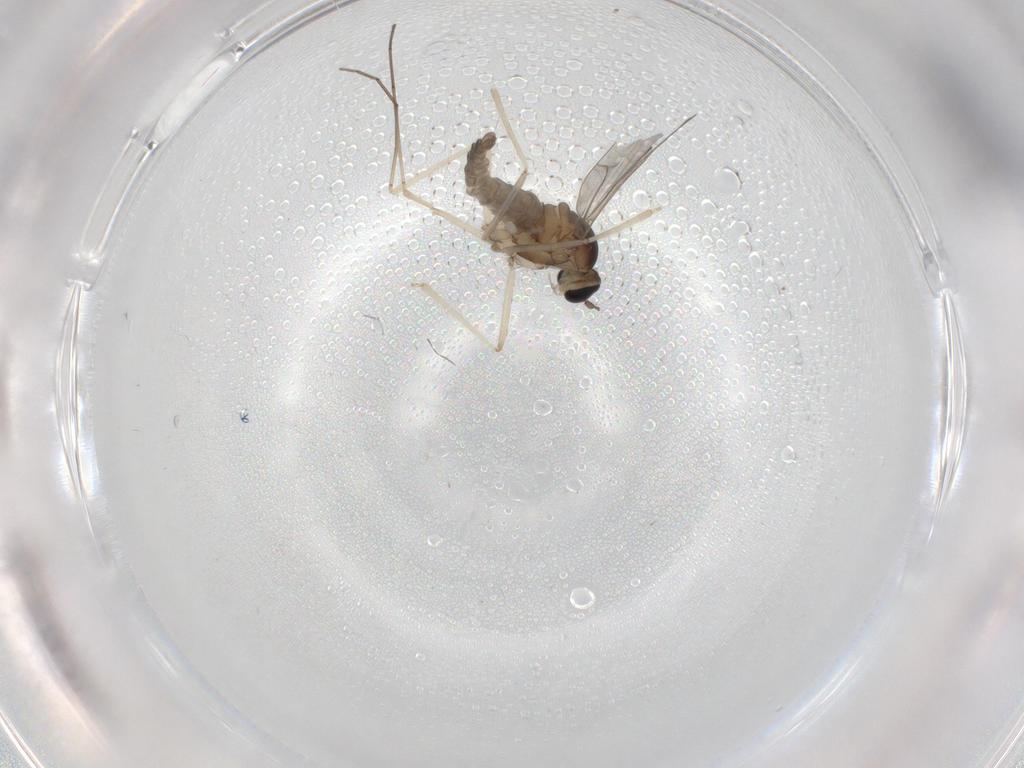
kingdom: Animalia
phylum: Arthropoda
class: Insecta
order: Diptera
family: Cecidomyiidae
